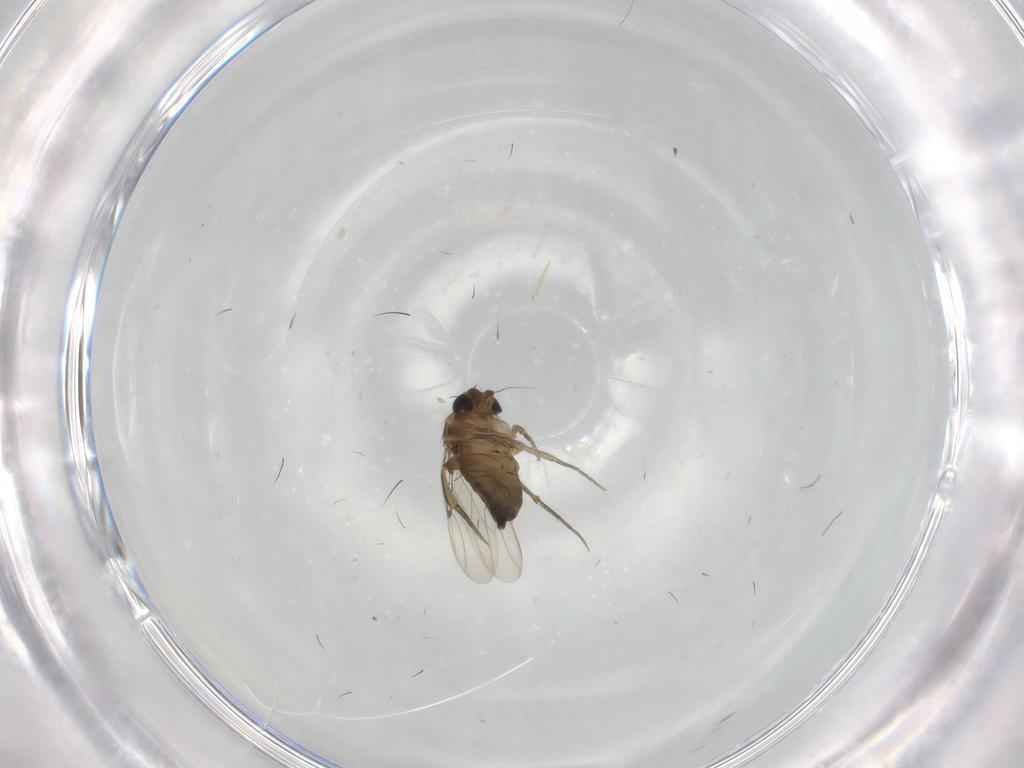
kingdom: Animalia
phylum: Arthropoda
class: Insecta
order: Diptera
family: Phoridae
